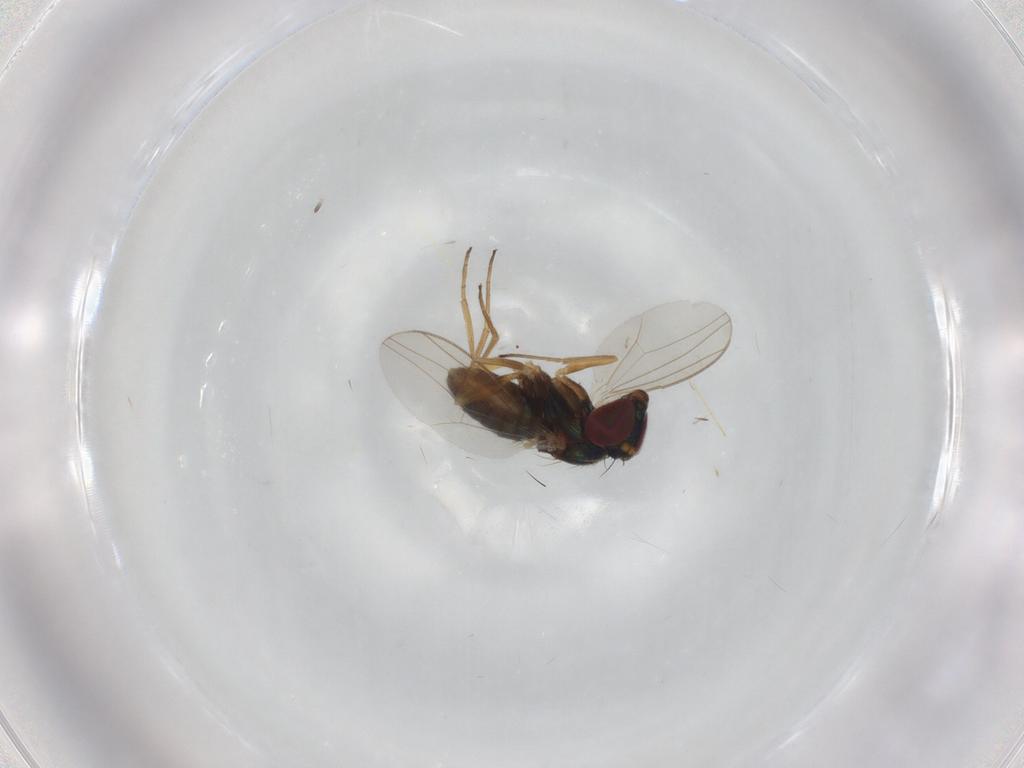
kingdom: Animalia
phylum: Arthropoda
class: Insecta
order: Diptera
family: Dolichopodidae
